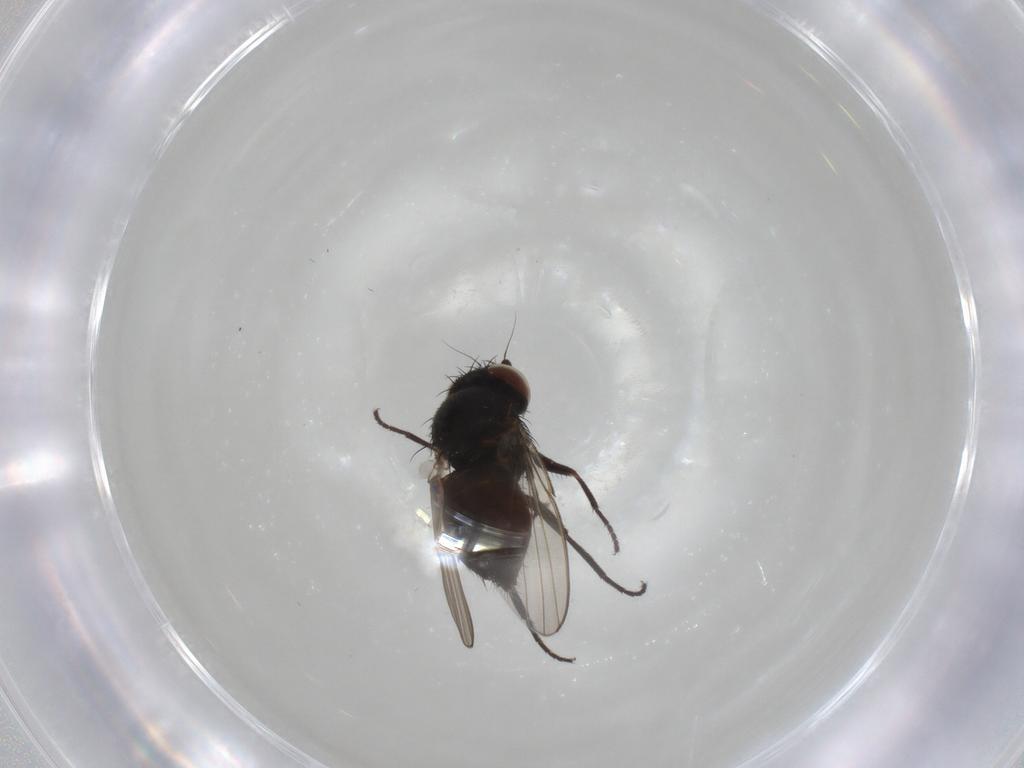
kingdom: Animalia
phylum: Arthropoda
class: Insecta
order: Diptera
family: Milichiidae
